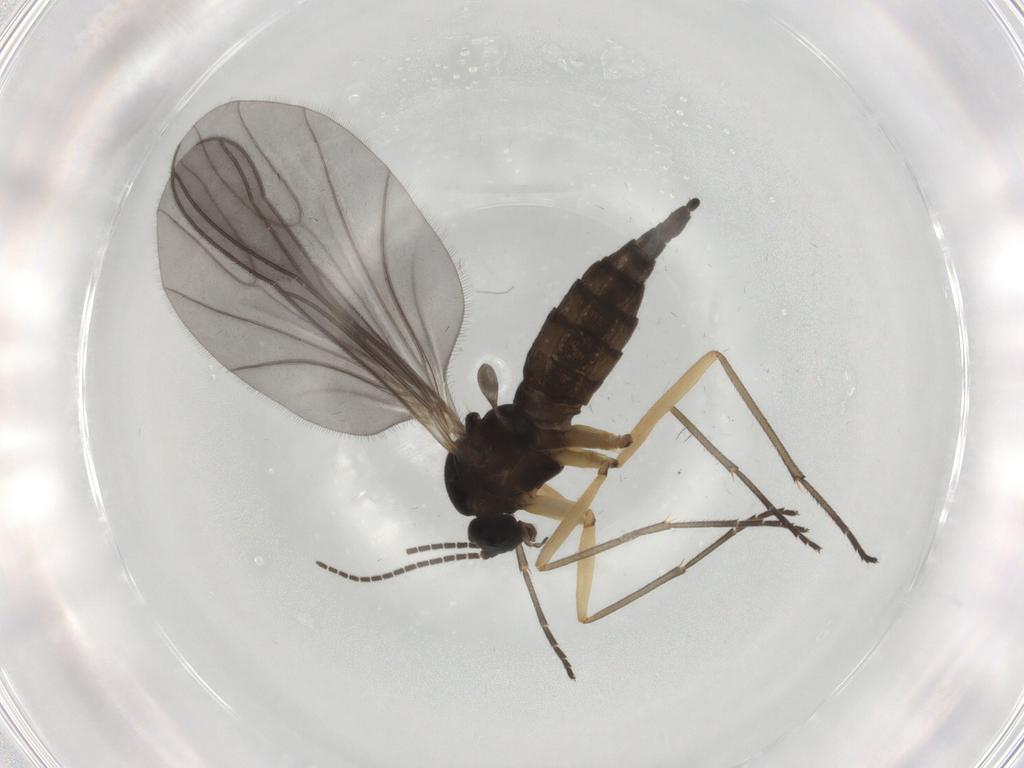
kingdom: Animalia
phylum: Arthropoda
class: Insecta
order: Diptera
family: Sciaridae
